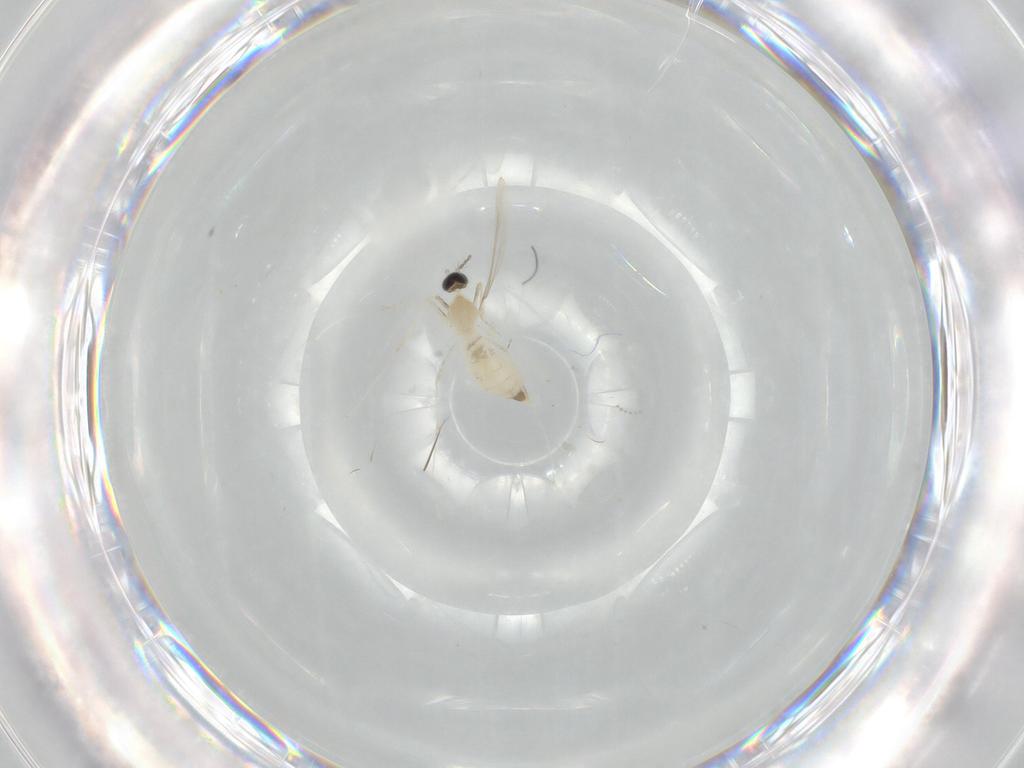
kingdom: Animalia
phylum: Arthropoda
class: Insecta
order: Diptera
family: Cecidomyiidae
